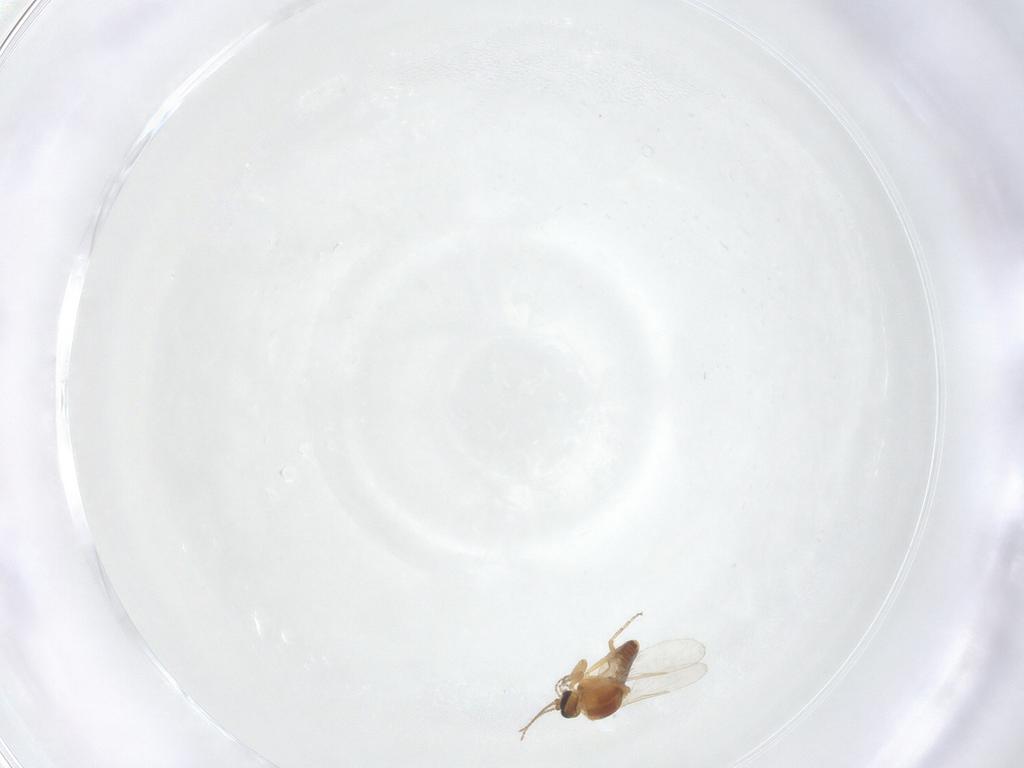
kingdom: Animalia
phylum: Arthropoda
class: Insecta
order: Diptera
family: Ceratopogonidae
